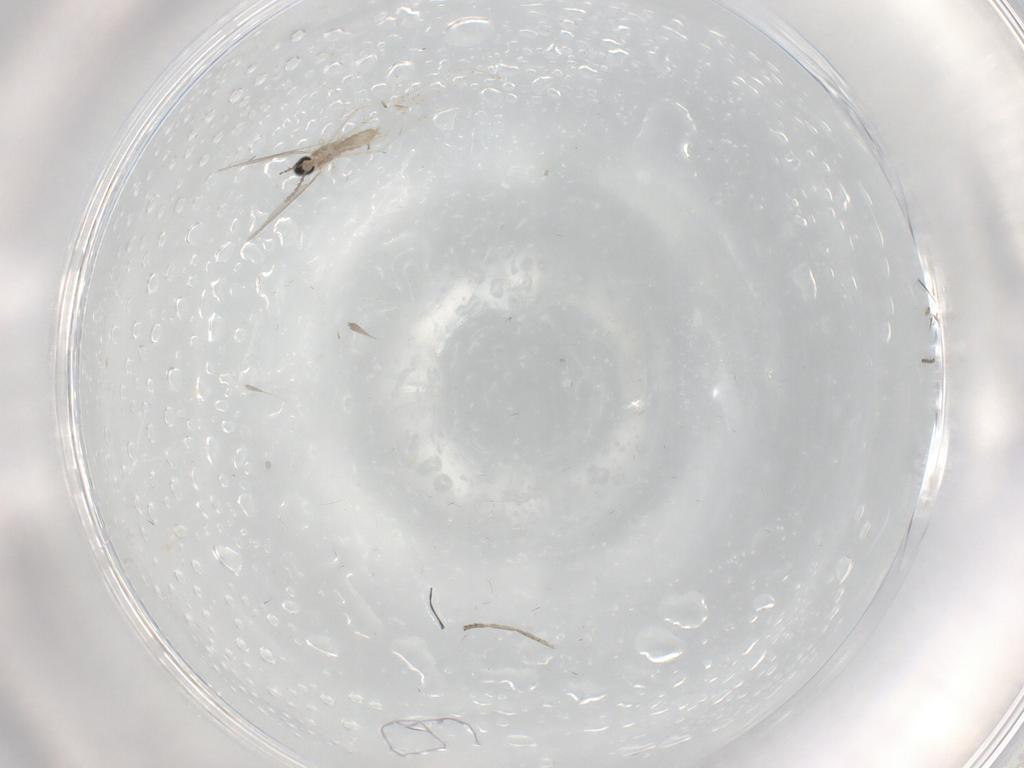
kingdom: Animalia
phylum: Arthropoda
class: Insecta
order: Diptera
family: Cecidomyiidae
